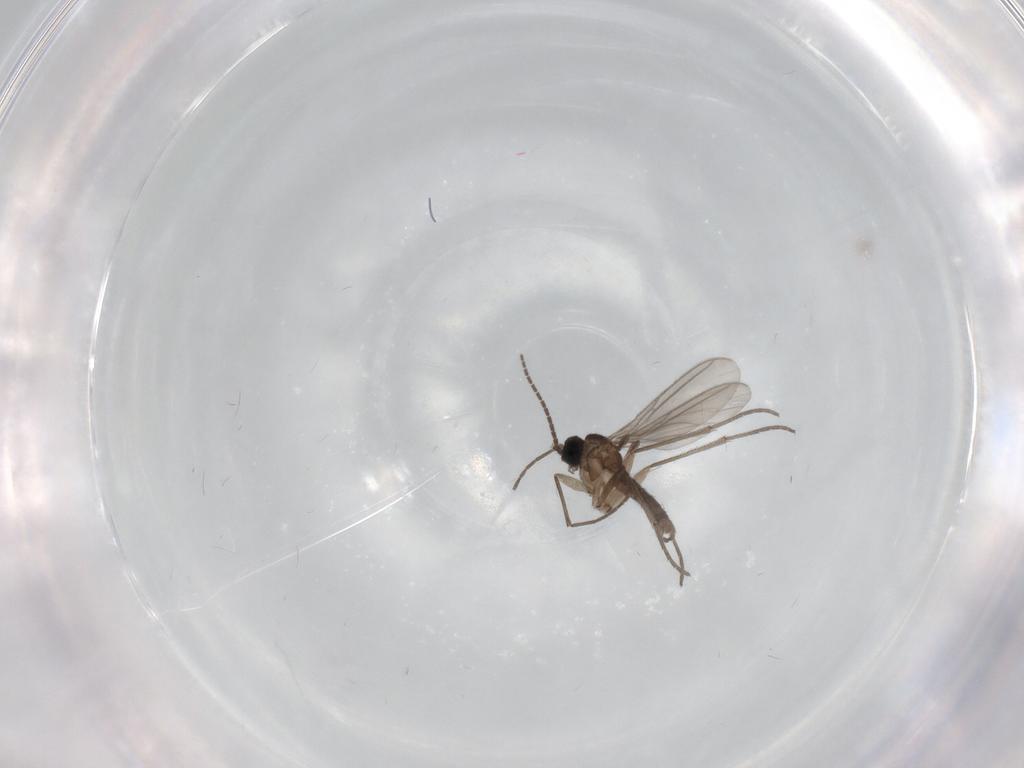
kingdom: Animalia
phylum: Arthropoda
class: Insecta
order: Diptera
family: Sciaridae
